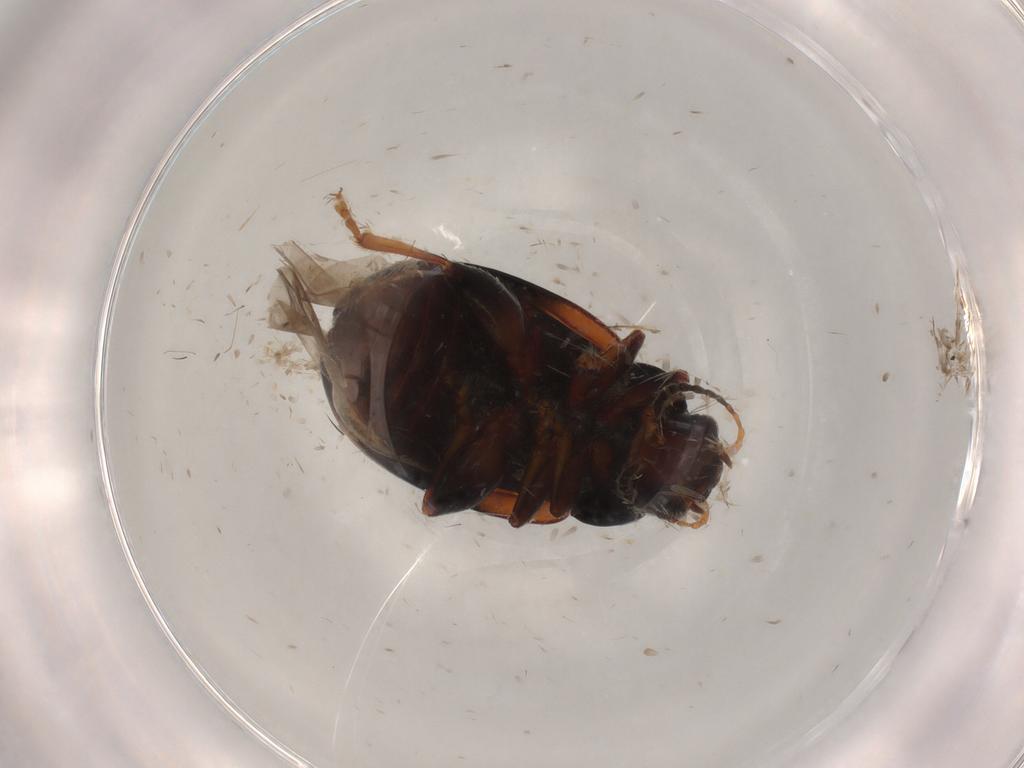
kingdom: Animalia
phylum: Arthropoda
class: Insecta
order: Coleoptera
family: Chrysomelidae
